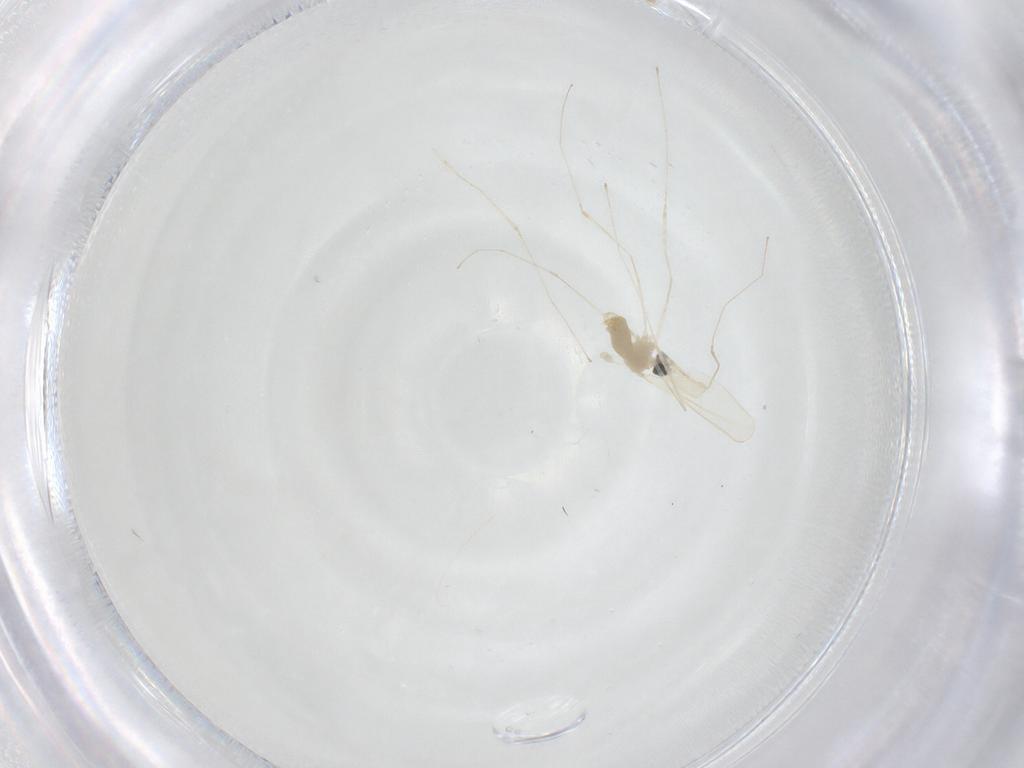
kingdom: Animalia
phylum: Arthropoda
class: Insecta
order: Diptera
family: Cecidomyiidae
